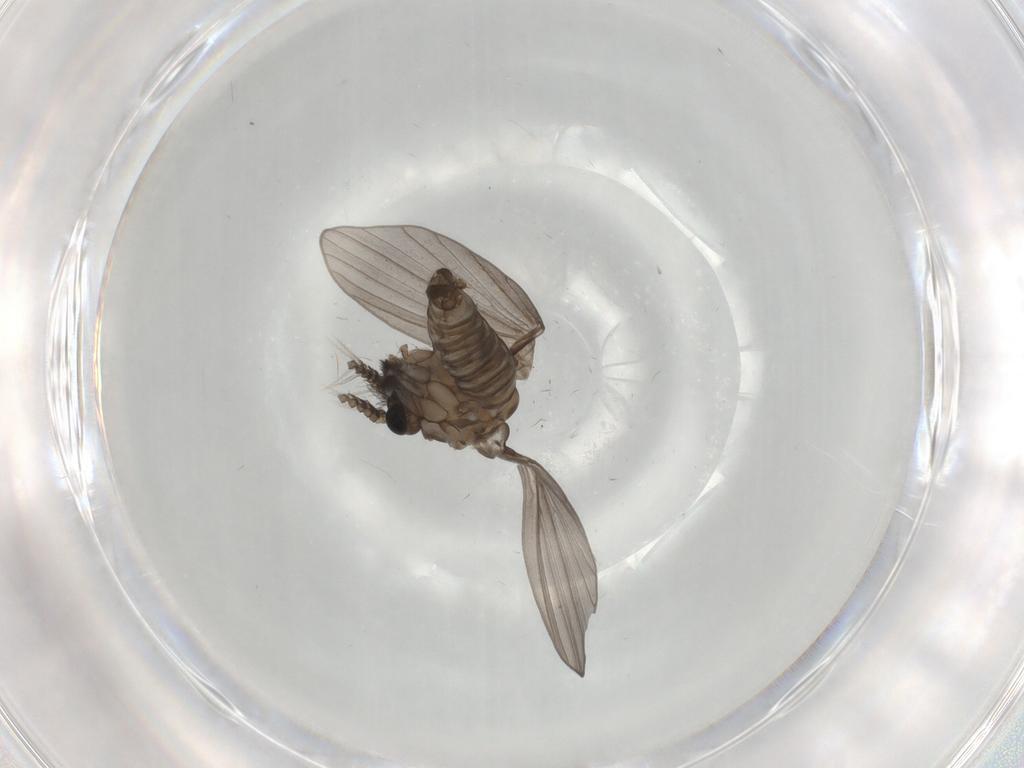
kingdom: Animalia
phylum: Arthropoda
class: Insecta
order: Diptera
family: Psychodidae
